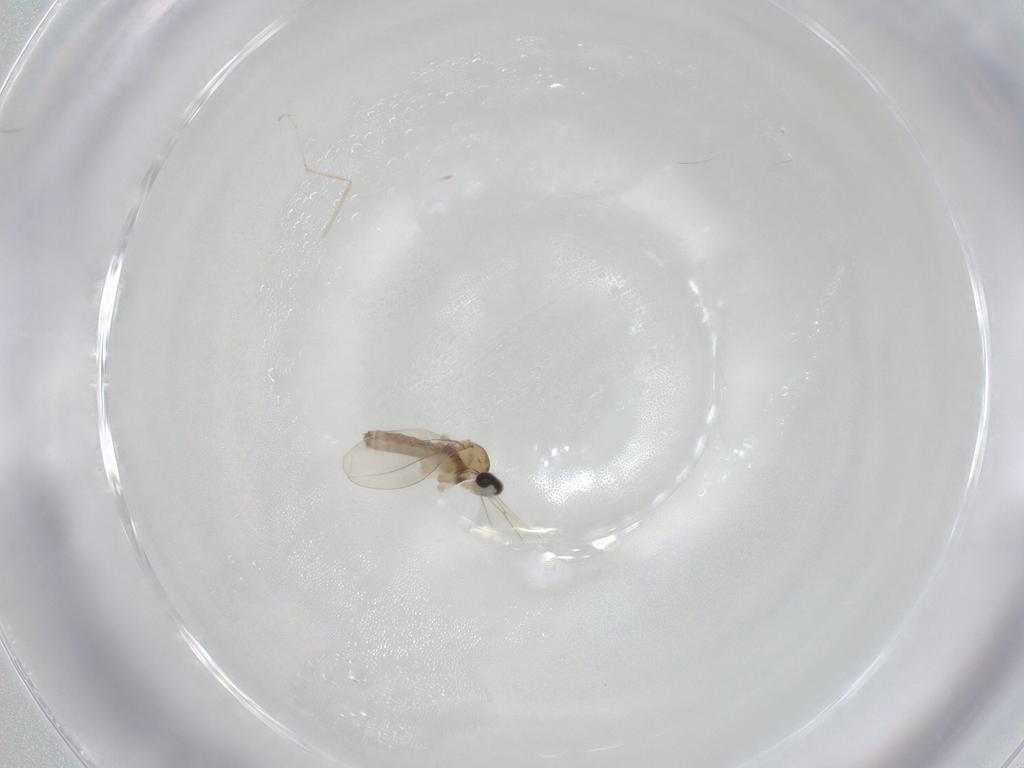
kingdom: Animalia
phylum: Arthropoda
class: Insecta
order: Diptera
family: Cecidomyiidae
